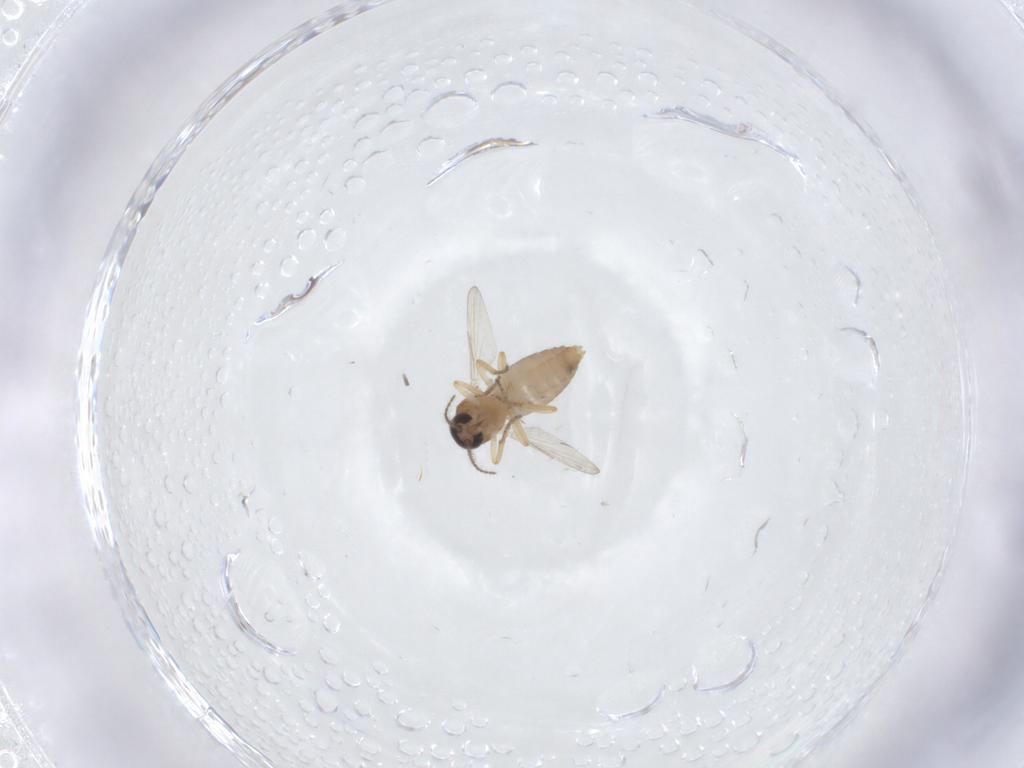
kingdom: Animalia
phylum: Arthropoda
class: Insecta
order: Diptera
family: Ceratopogonidae
